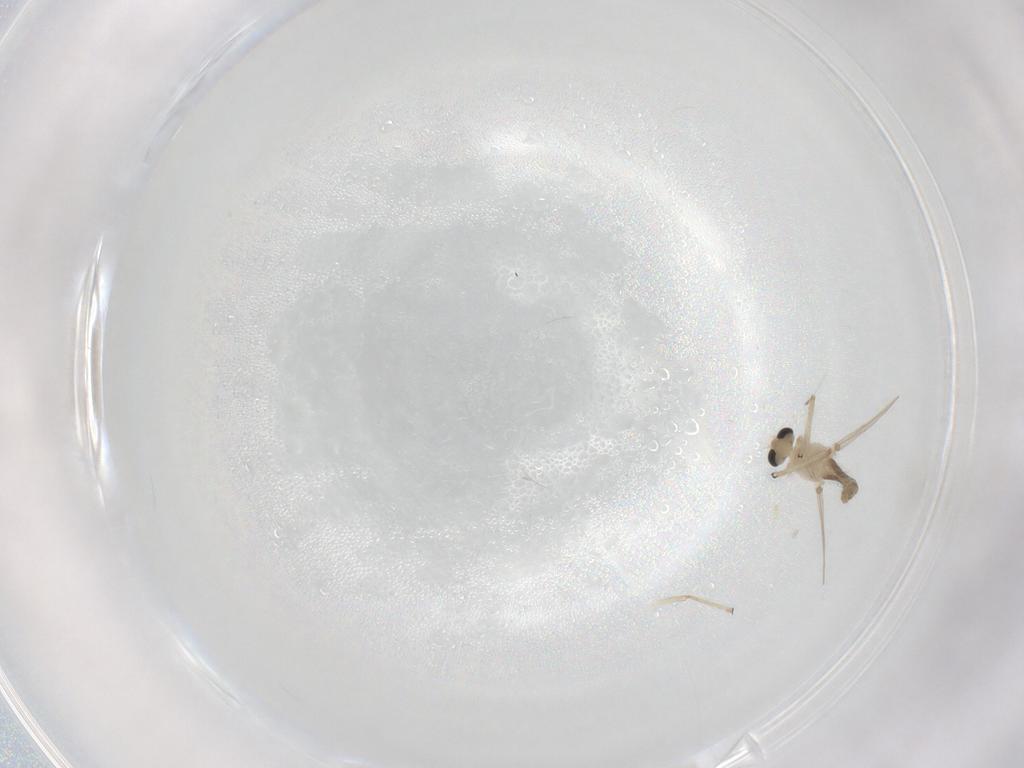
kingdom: Animalia
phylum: Arthropoda
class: Insecta
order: Diptera
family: Chironomidae
